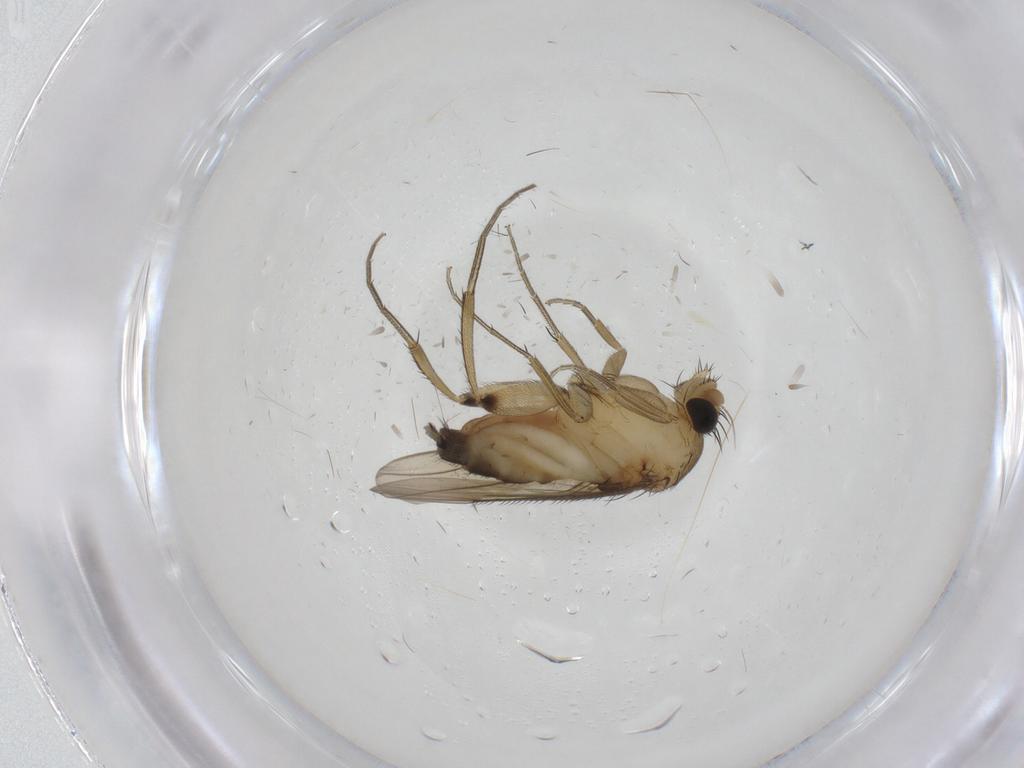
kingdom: Animalia
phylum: Arthropoda
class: Insecta
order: Diptera
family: Phoridae
